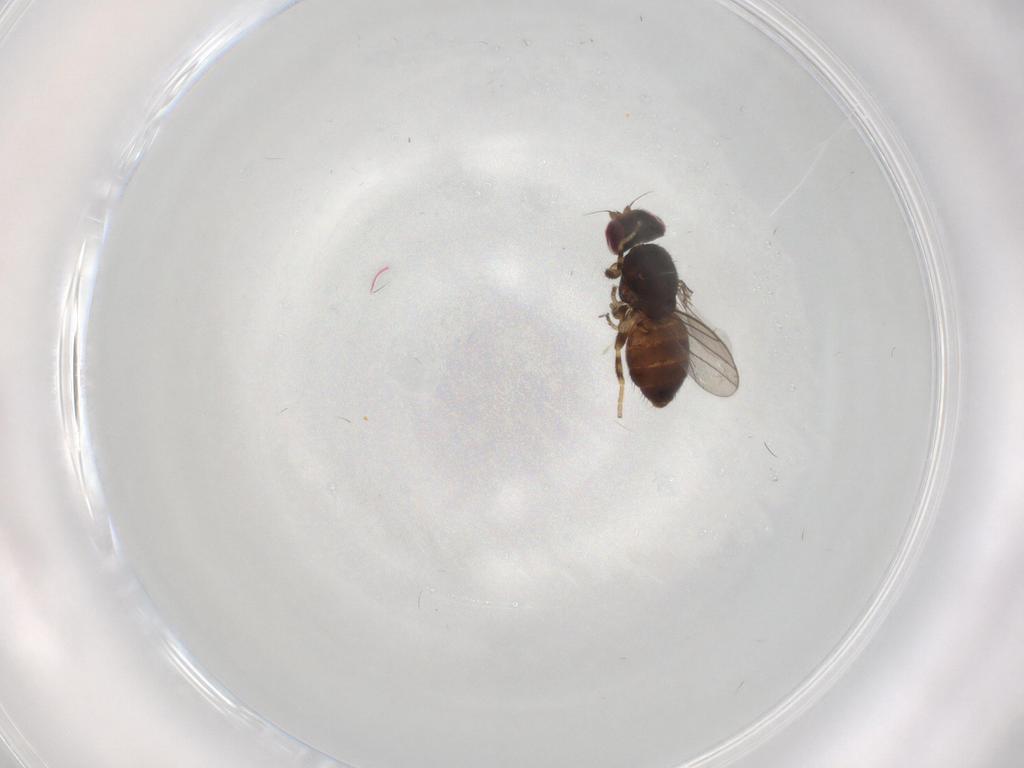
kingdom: Animalia
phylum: Arthropoda
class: Insecta
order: Diptera
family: Chloropidae
